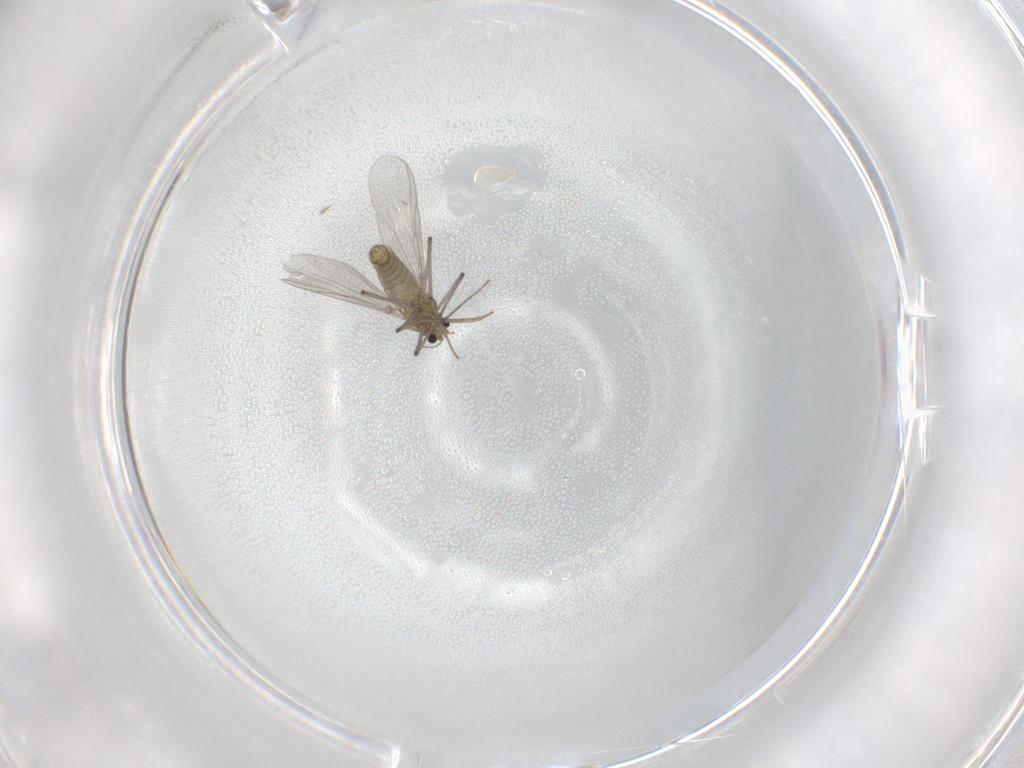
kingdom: Animalia
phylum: Arthropoda
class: Insecta
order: Diptera
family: Chironomidae
